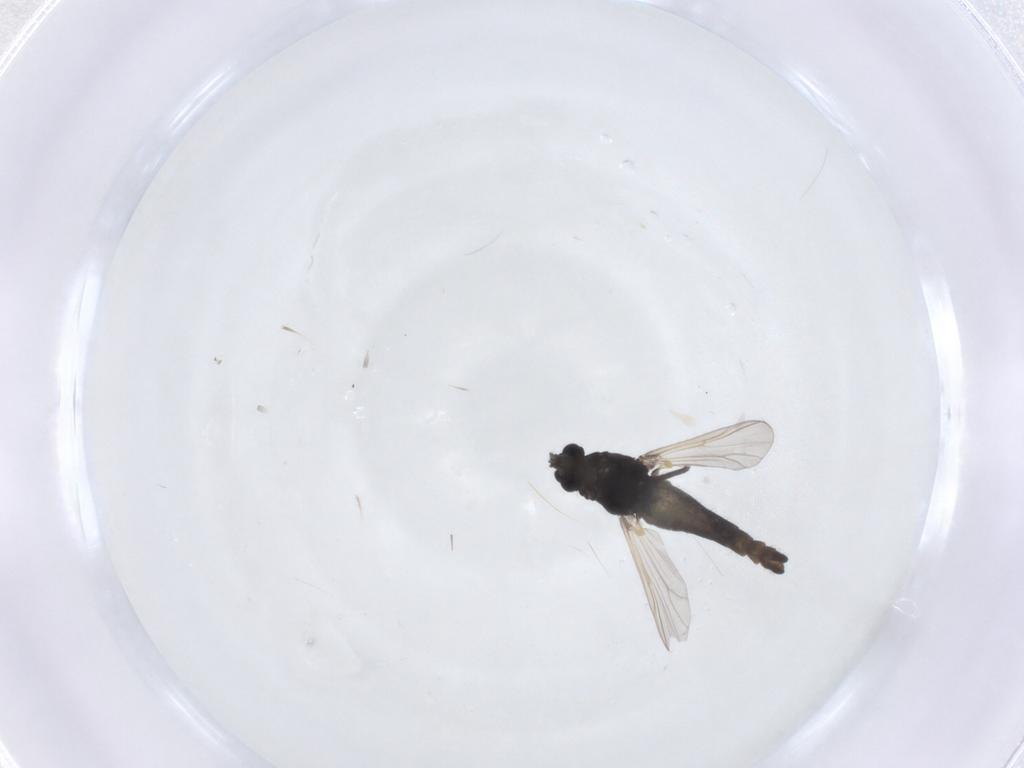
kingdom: Animalia
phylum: Arthropoda
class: Insecta
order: Diptera
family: Chironomidae
